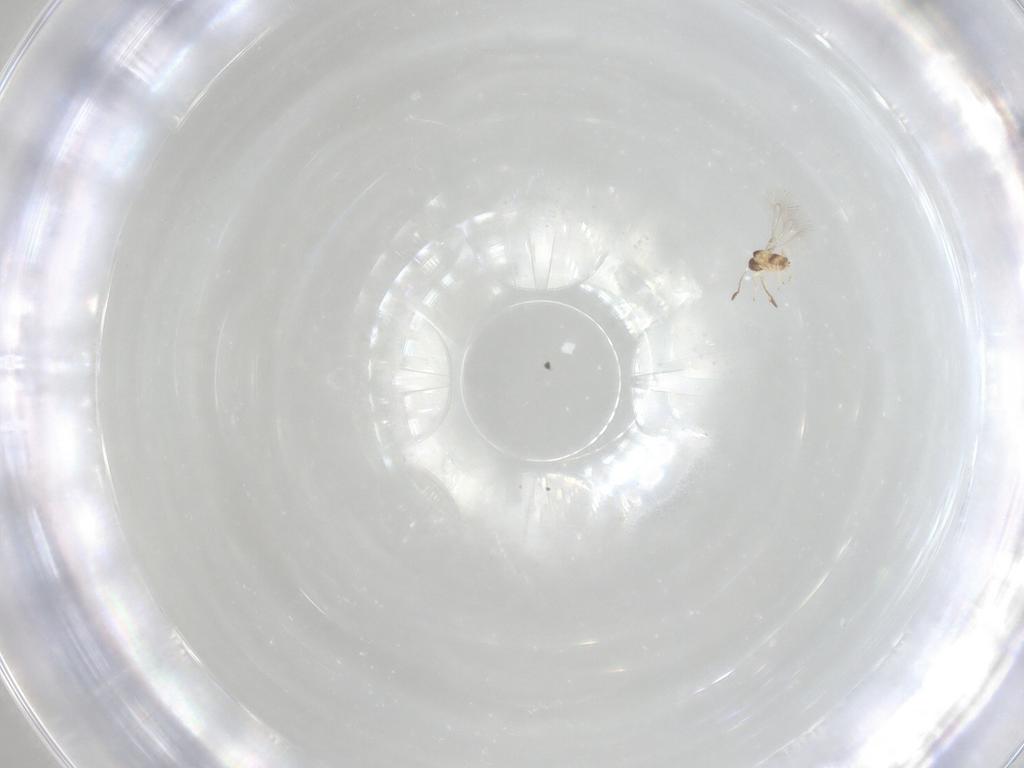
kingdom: Animalia
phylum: Arthropoda
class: Insecta
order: Hymenoptera
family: Mymaridae
